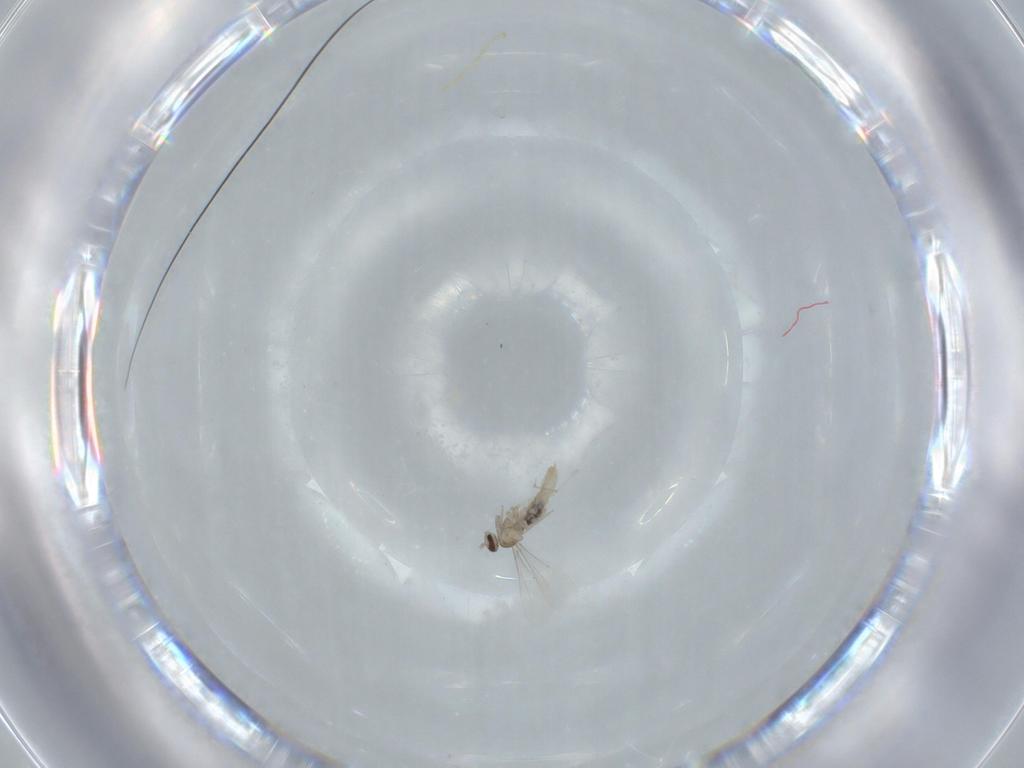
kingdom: Animalia
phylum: Arthropoda
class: Insecta
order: Diptera
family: Cecidomyiidae
